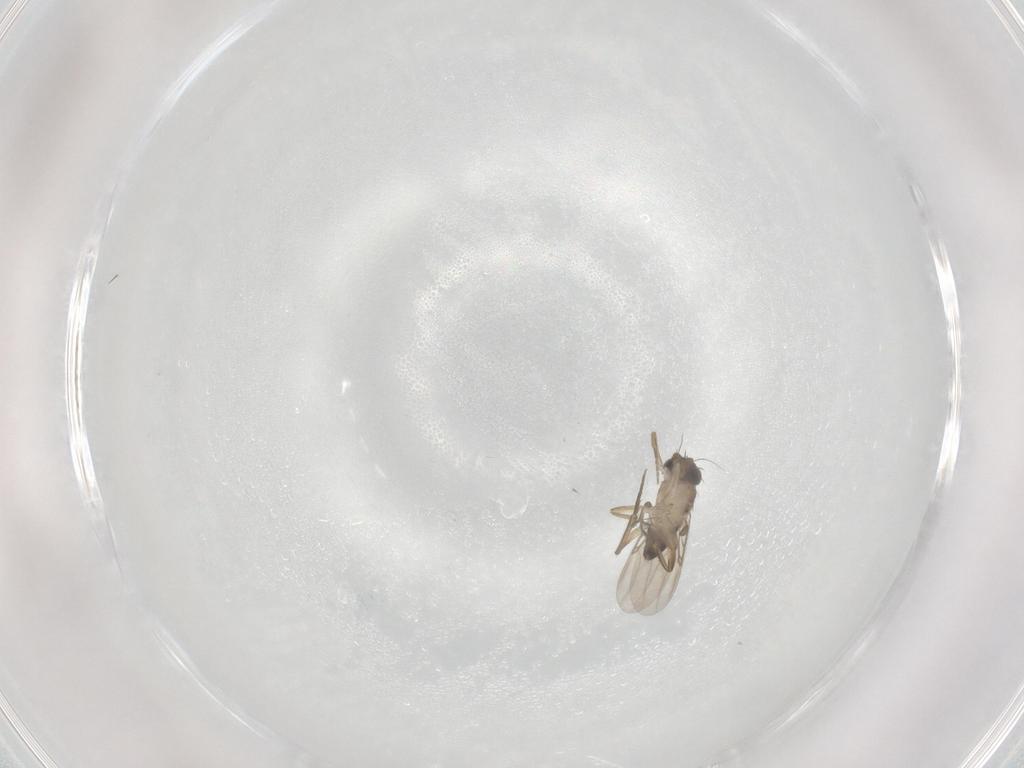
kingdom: Animalia
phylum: Arthropoda
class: Insecta
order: Diptera
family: Phoridae
